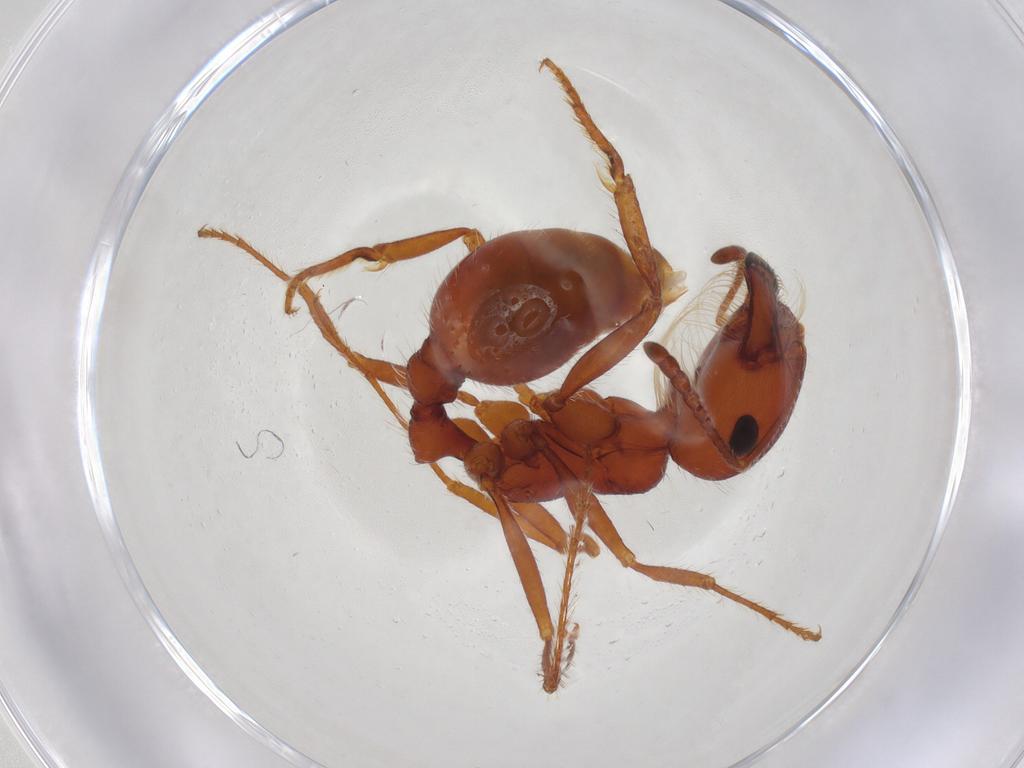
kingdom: Animalia
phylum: Arthropoda
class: Insecta
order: Hymenoptera
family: Formicidae
